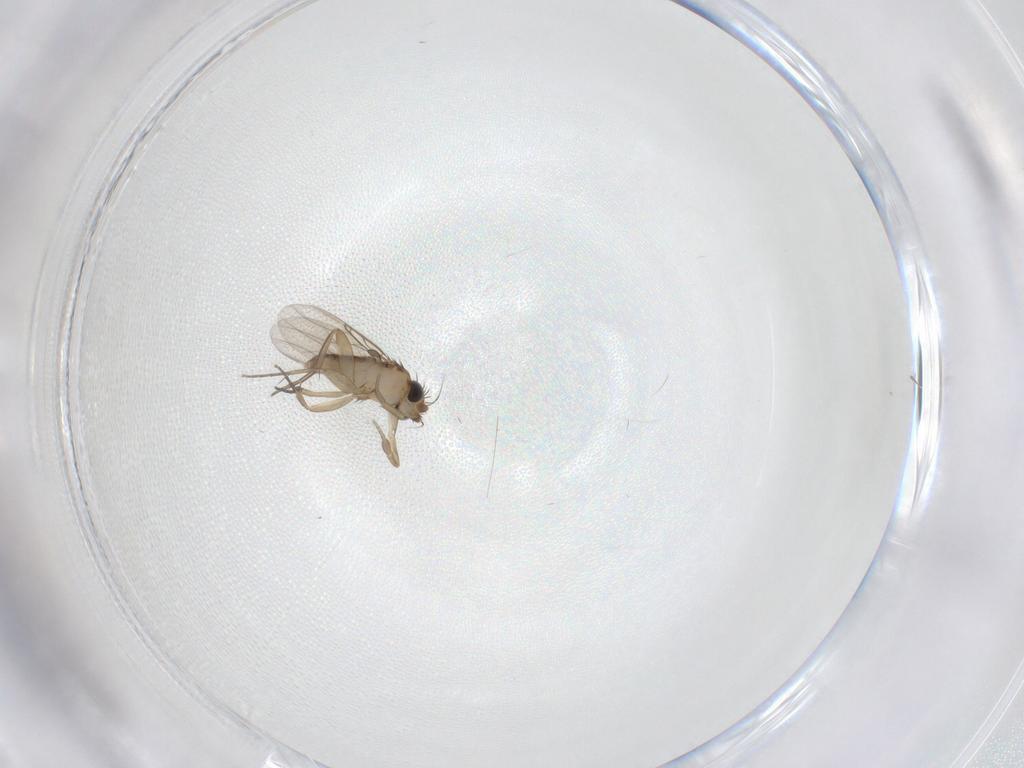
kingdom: Animalia
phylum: Arthropoda
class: Insecta
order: Diptera
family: Phoridae
